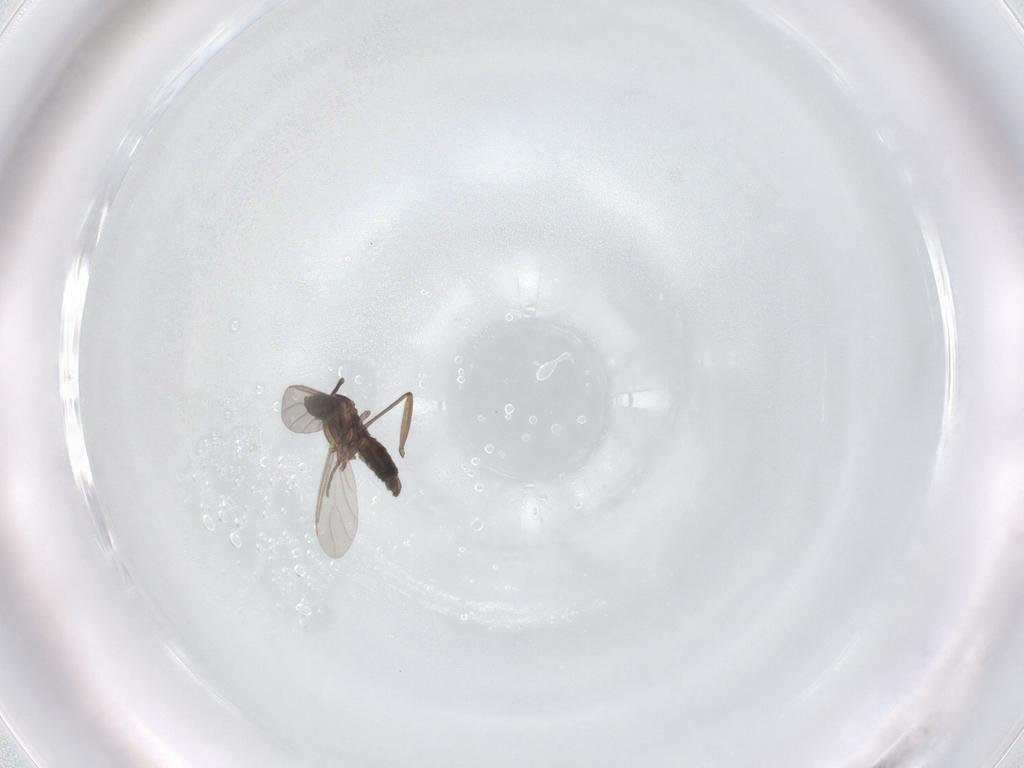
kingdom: Animalia
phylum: Arthropoda
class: Insecta
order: Diptera
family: Sciaridae
